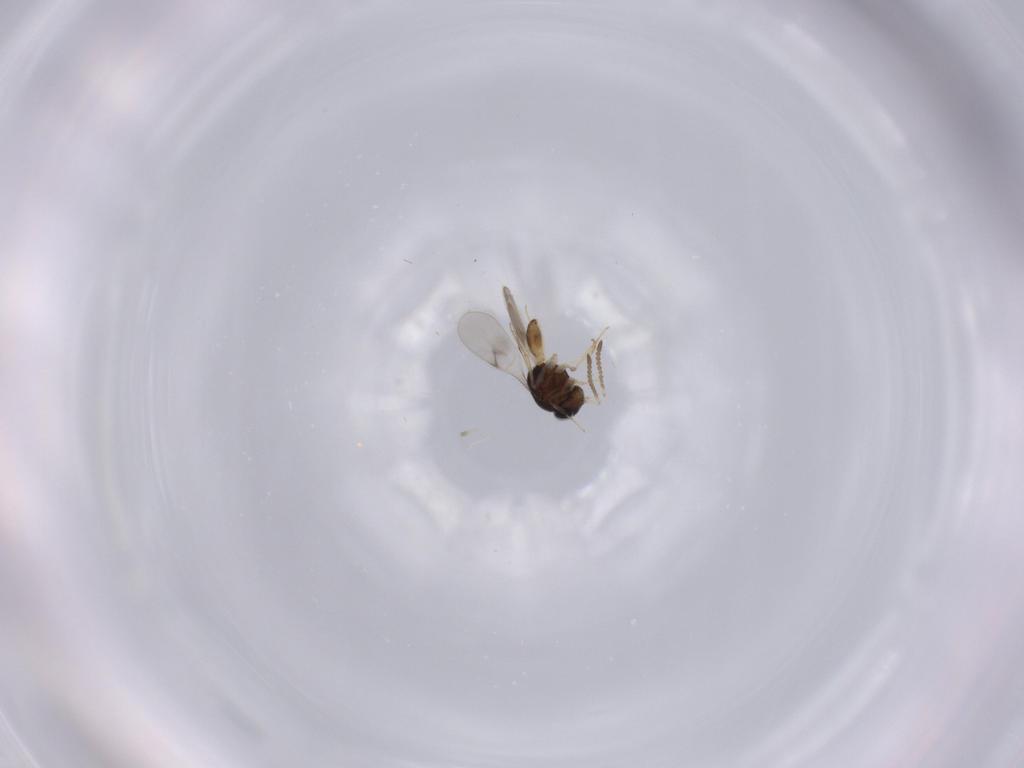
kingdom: Animalia
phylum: Arthropoda
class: Insecta
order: Hymenoptera
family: Scelionidae
